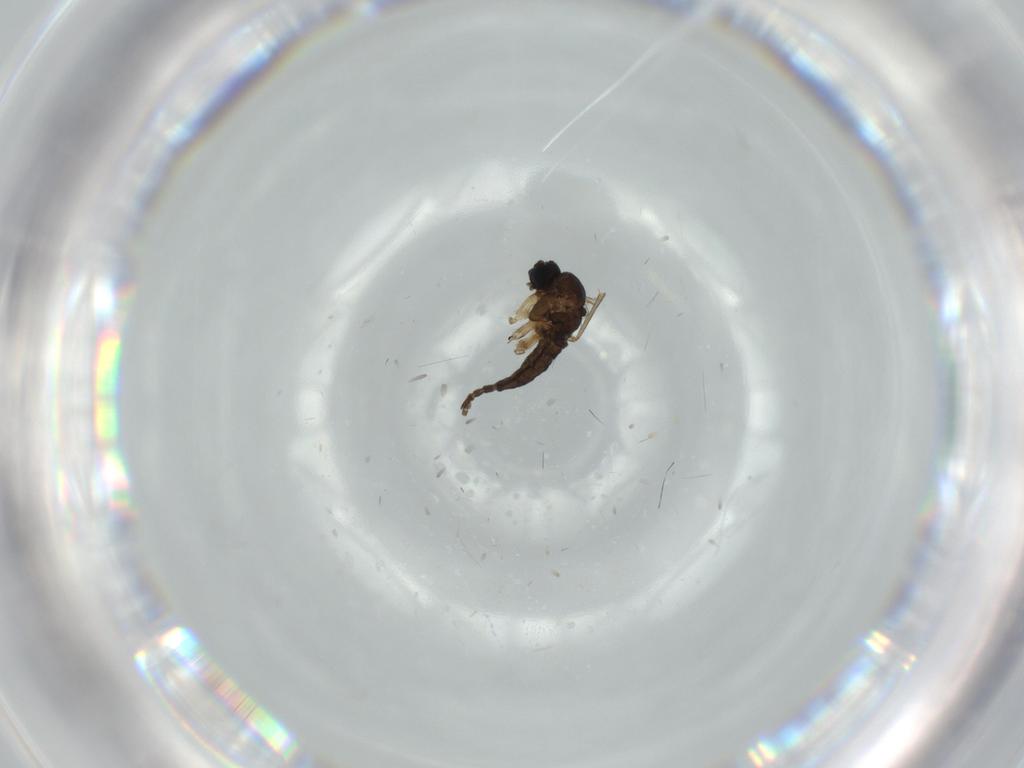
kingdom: Animalia
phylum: Arthropoda
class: Insecta
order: Diptera
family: Sciaridae
